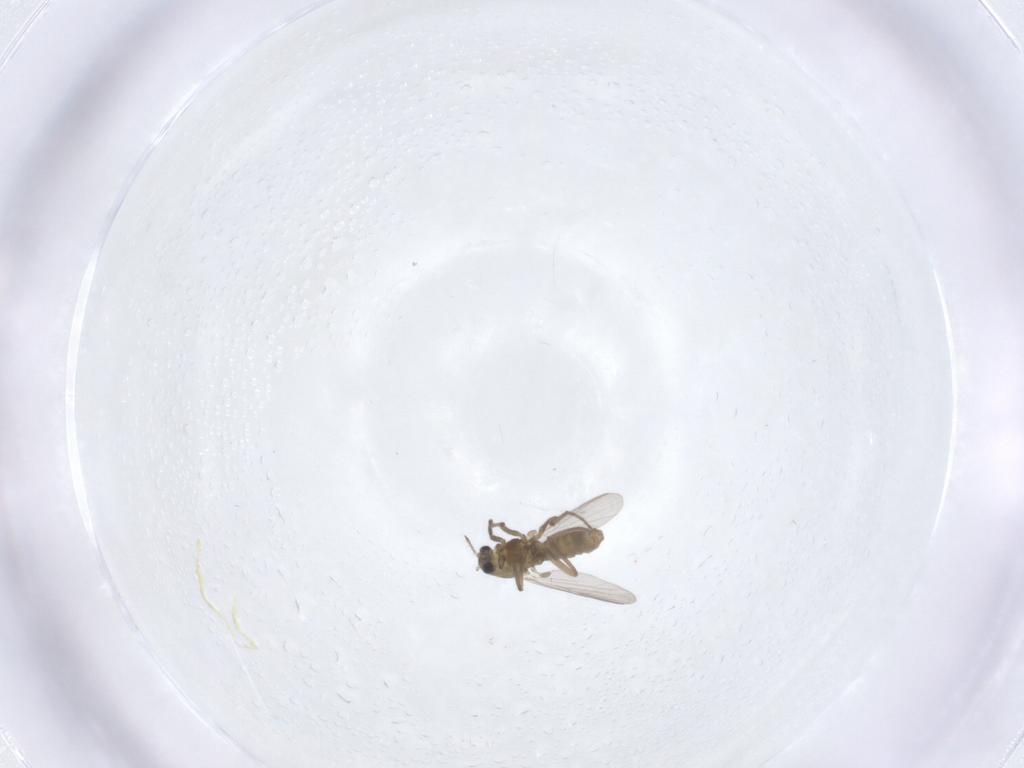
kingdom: Animalia
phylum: Arthropoda
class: Insecta
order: Diptera
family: Chironomidae
